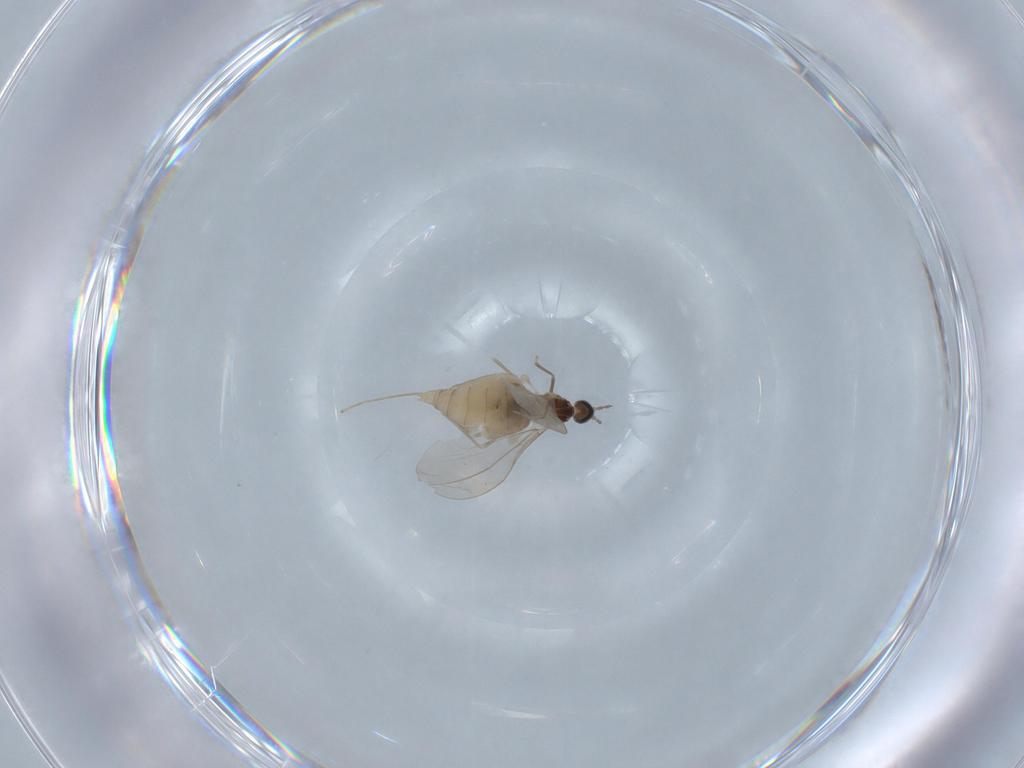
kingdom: Animalia
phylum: Arthropoda
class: Insecta
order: Diptera
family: Cecidomyiidae
